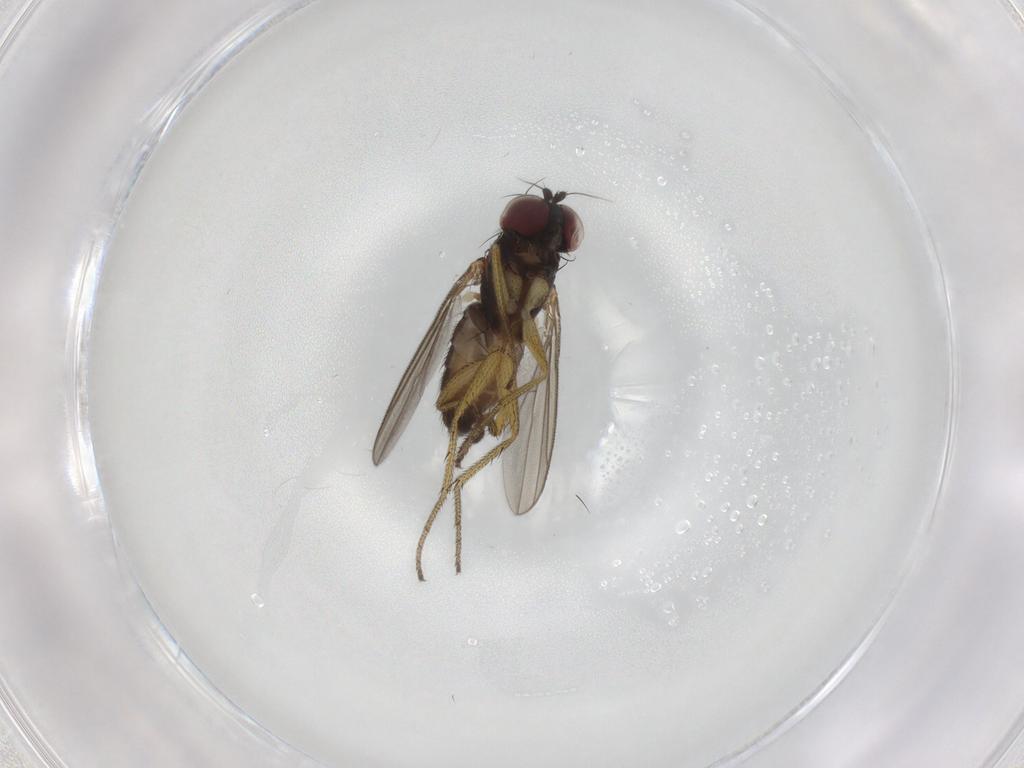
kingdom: Animalia
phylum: Arthropoda
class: Insecta
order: Diptera
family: Dolichopodidae
